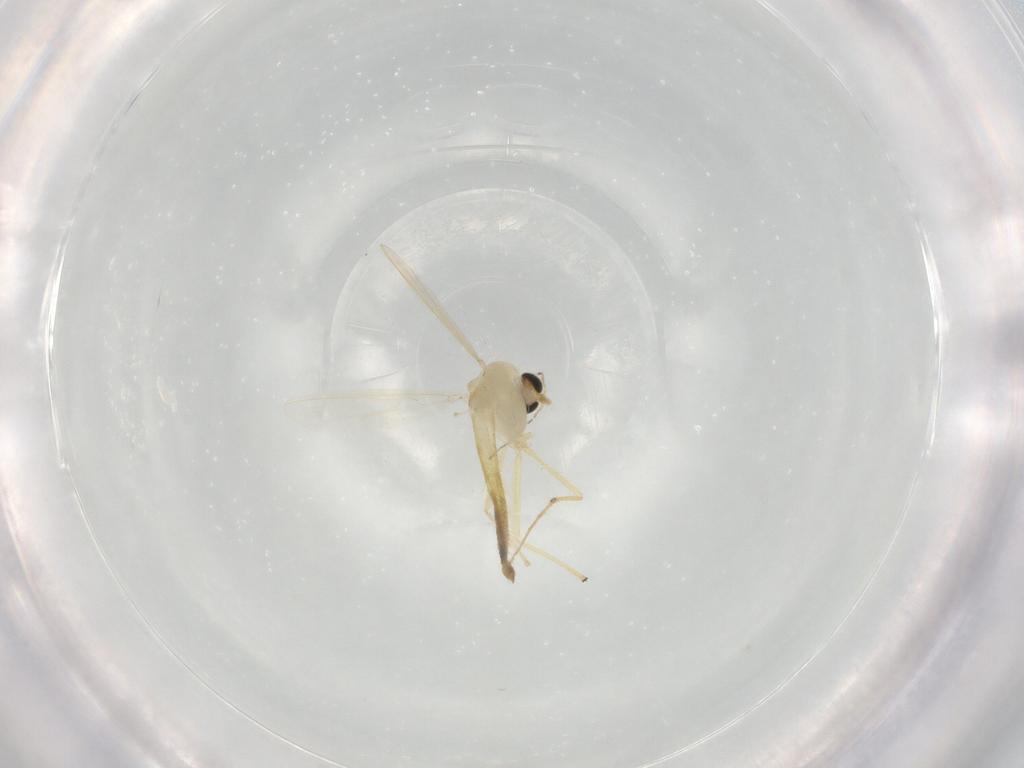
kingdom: Animalia
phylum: Arthropoda
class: Insecta
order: Diptera
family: Chironomidae
